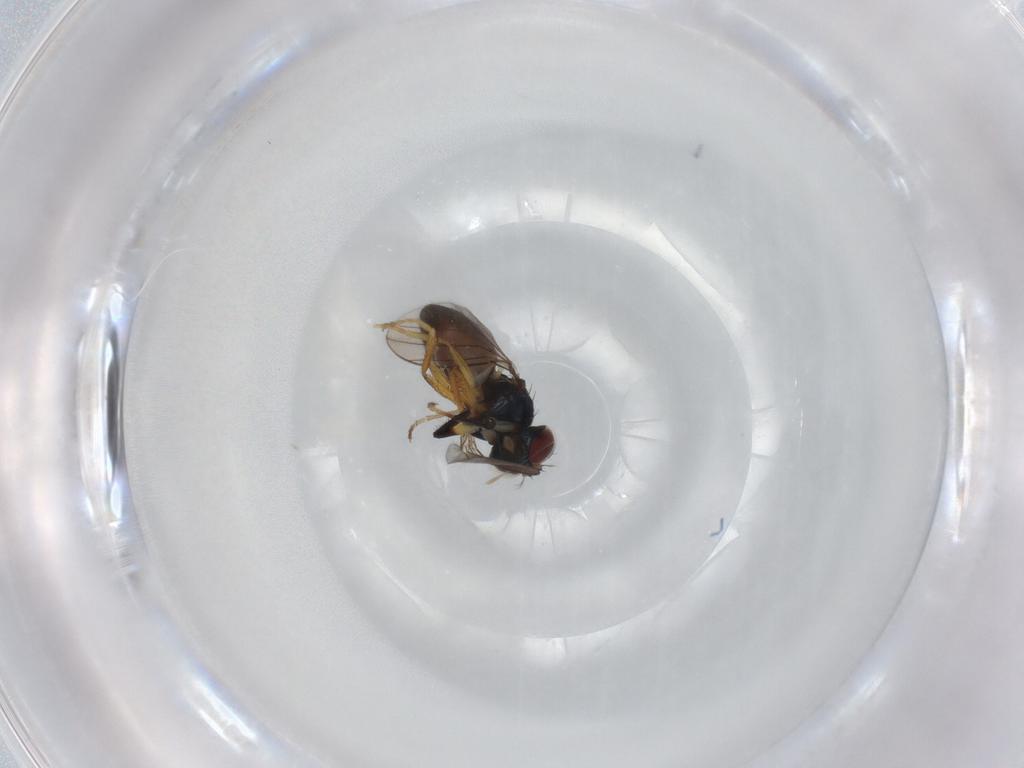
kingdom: Animalia
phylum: Arthropoda
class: Insecta
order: Diptera
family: Ephydridae
